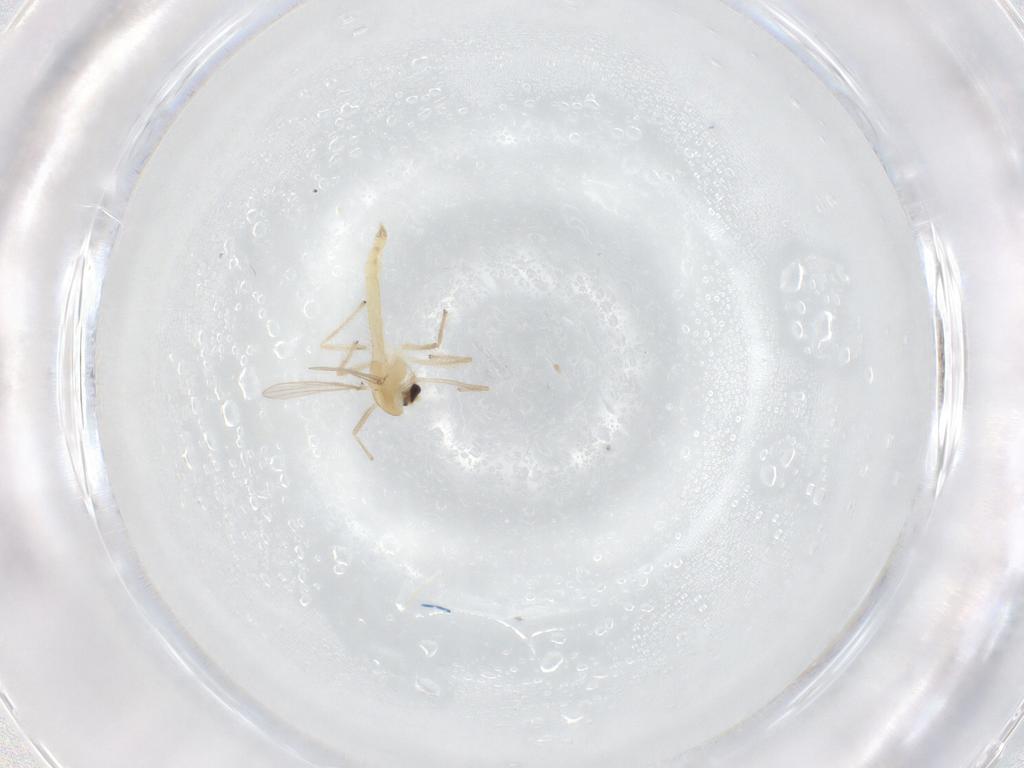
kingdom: Animalia
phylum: Arthropoda
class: Insecta
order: Diptera
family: Chironomidae
